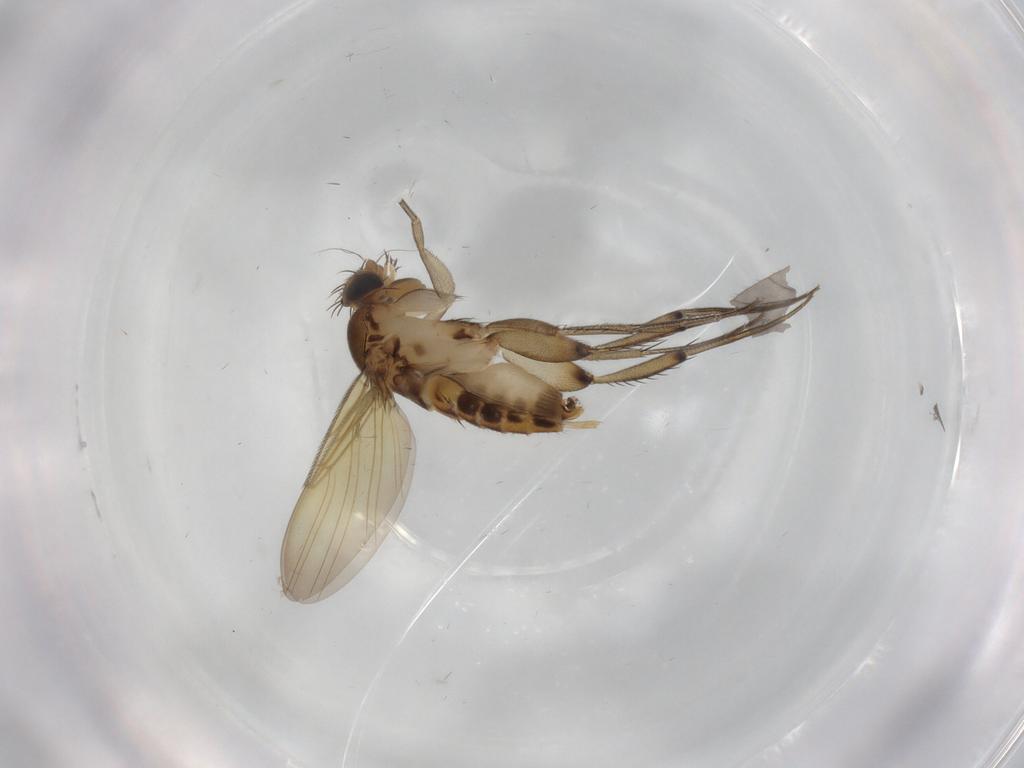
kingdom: Animalia
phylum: Arthropoda
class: Insecta
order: Diptera
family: Phoridae
